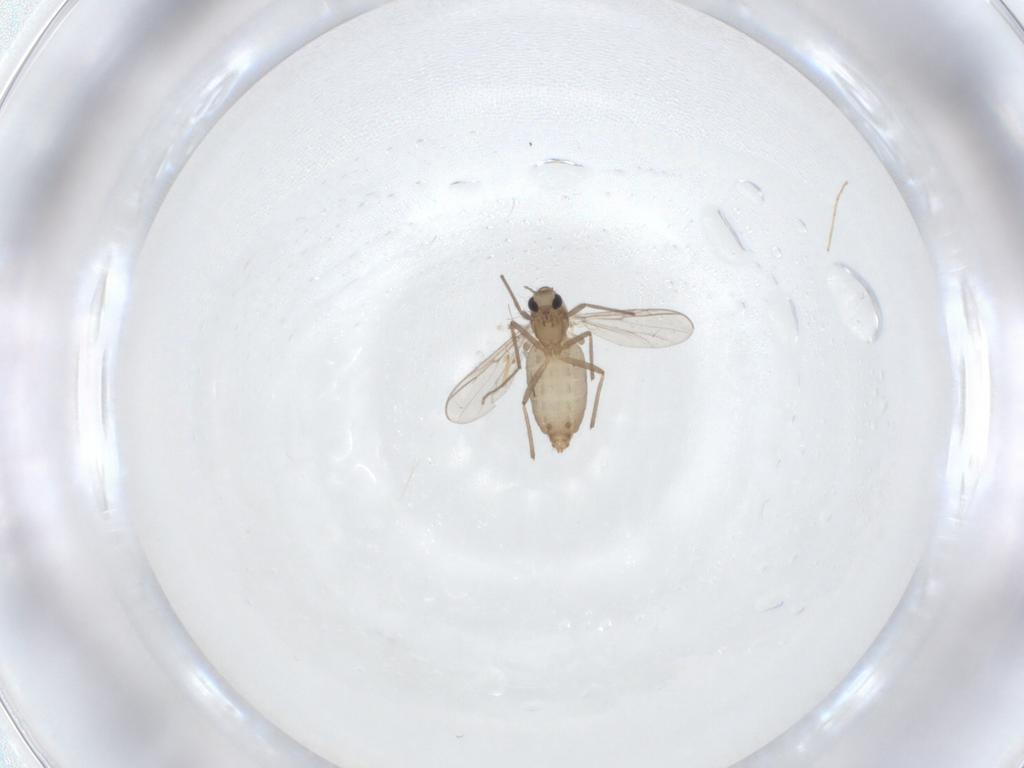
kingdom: Animalia
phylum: Arthropoda
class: Insecta
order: Diptera
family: Chironomidae
